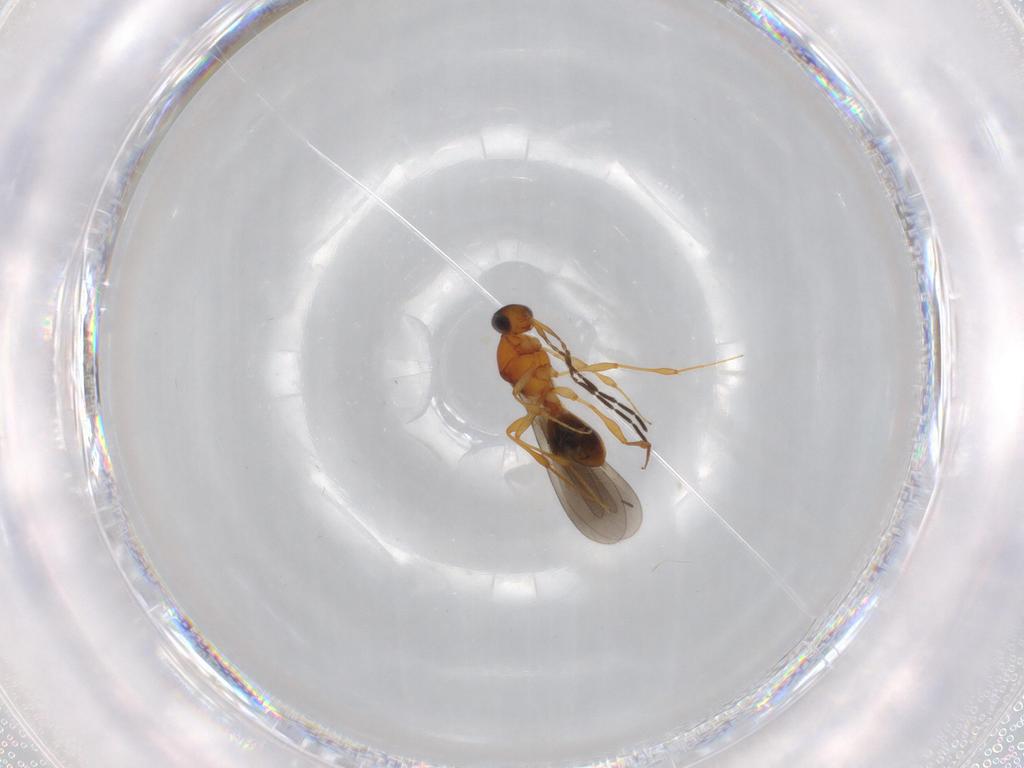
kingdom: Animalia
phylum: Arthropoda
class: Insecta
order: Hymenoptera
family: Platygastridae
